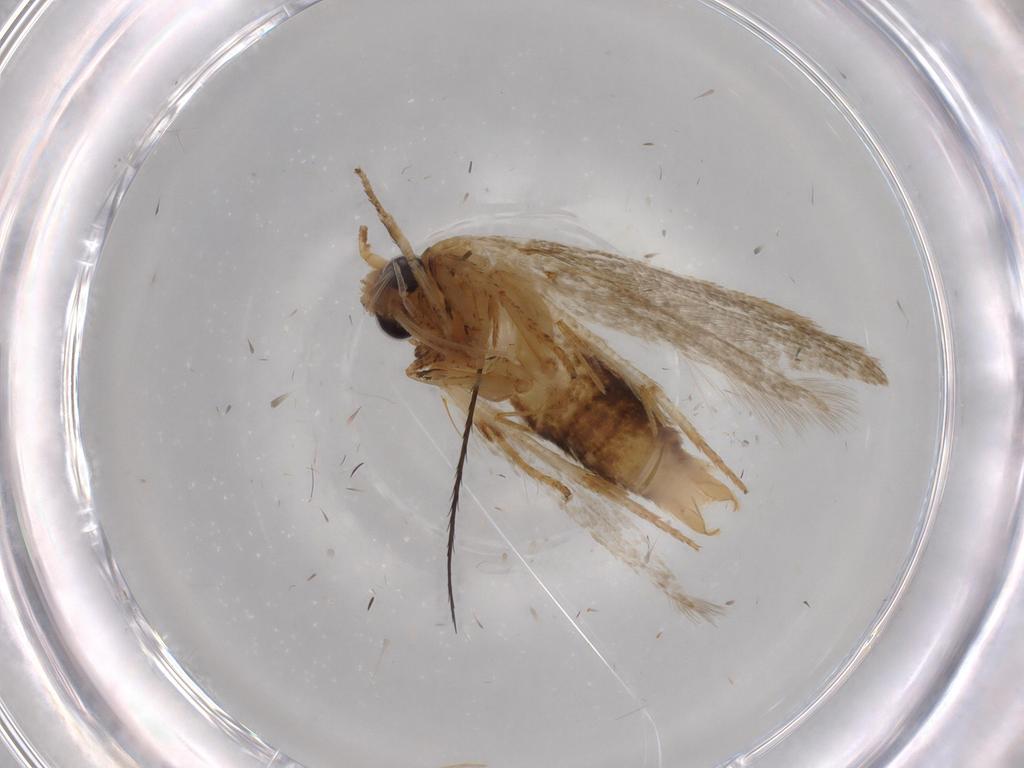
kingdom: Animalia
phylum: Arthropoda
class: Insecta
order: Lepidoptera
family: Blastobasidae
